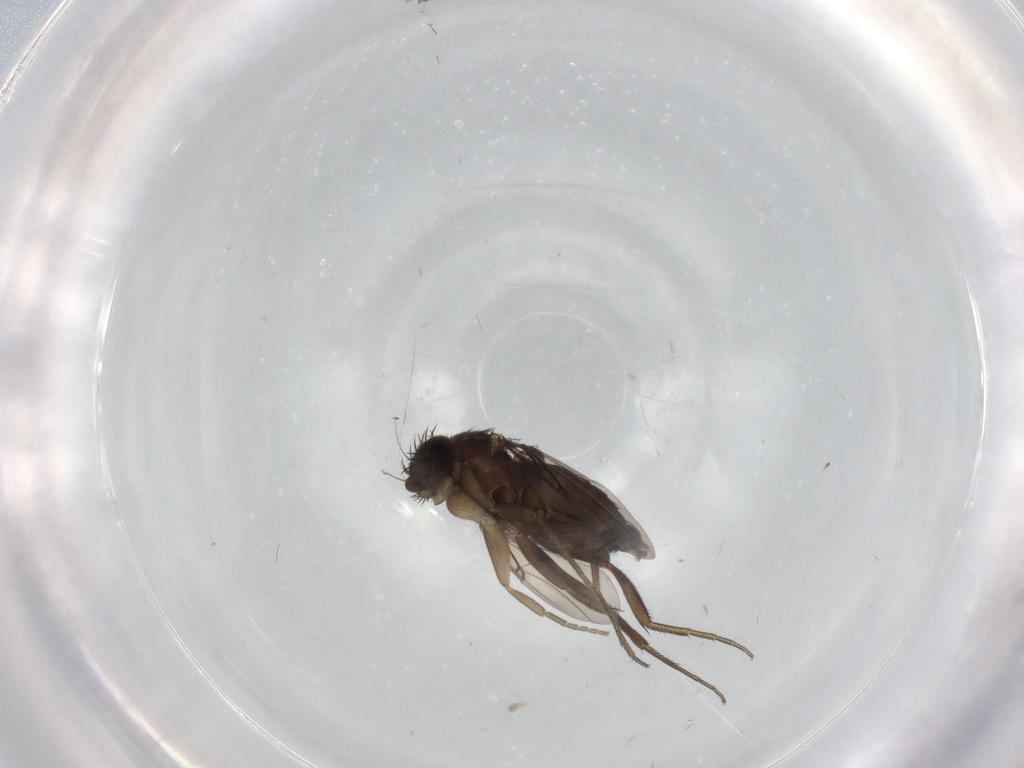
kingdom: Animalia
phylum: Arthropoda
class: Insecta
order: Diptera
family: Phoridae
